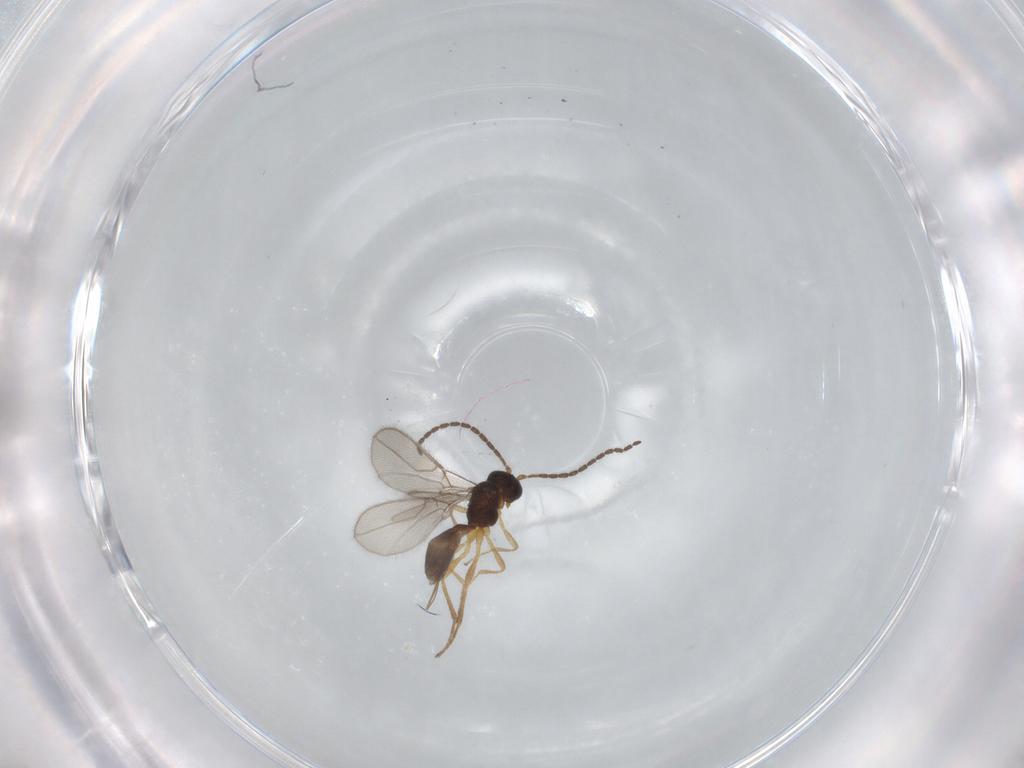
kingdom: Animalia
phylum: Arthropoda
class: Insecta
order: Hymenoptera
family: Braconidae
